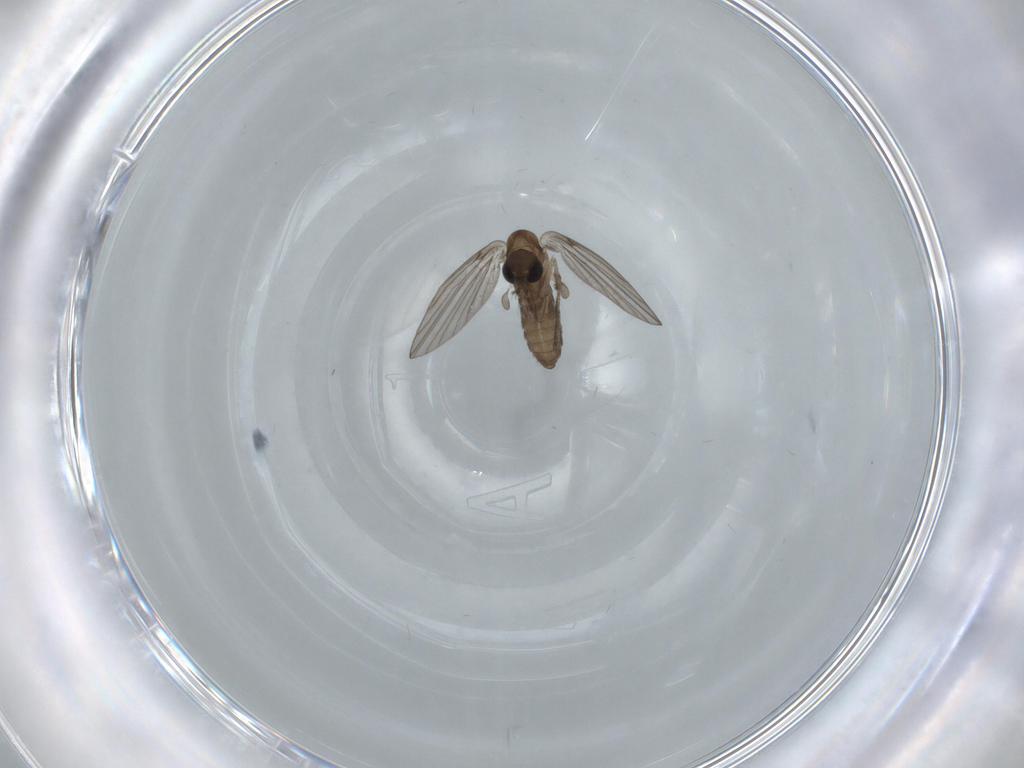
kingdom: Animalia
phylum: Arthropoda
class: Insecta
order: Diptera
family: Psychodidae
